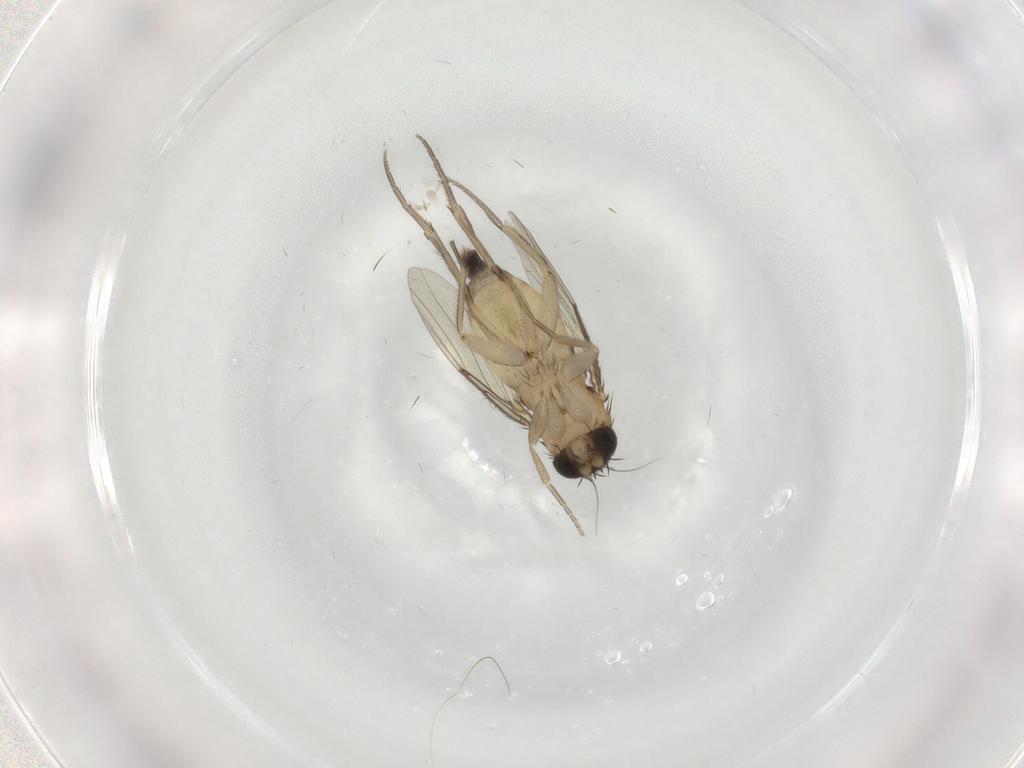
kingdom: Animalia
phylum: Arthropoda
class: Insecta
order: Diptera
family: Phoridae
